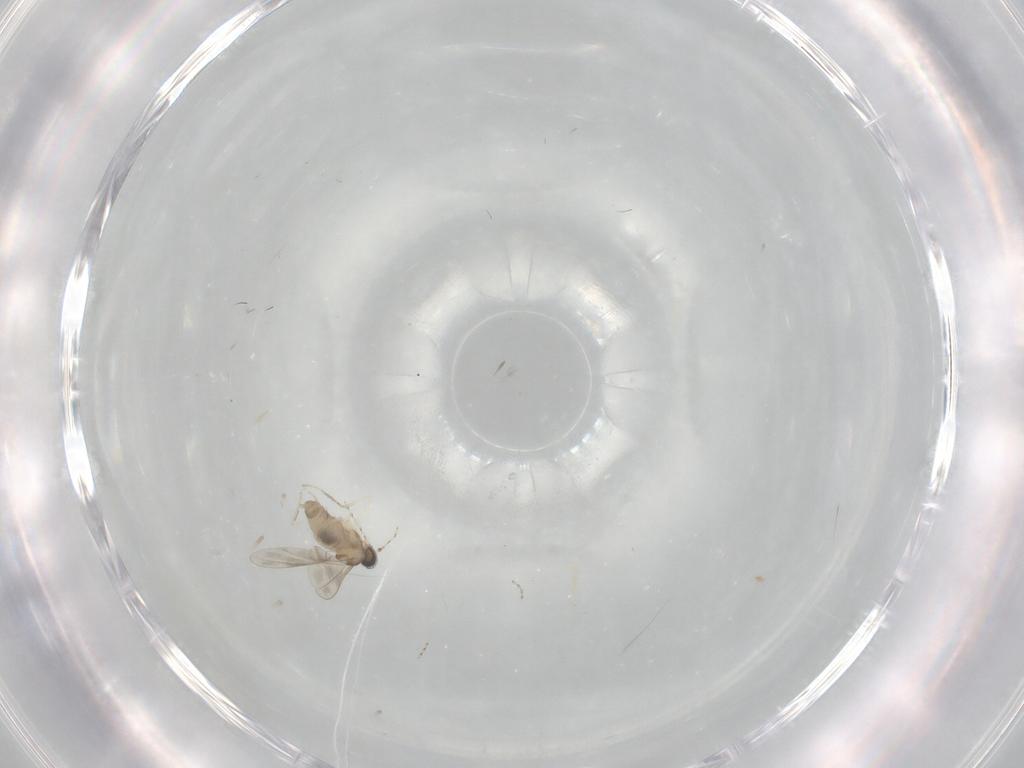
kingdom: Animalia
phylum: Arthropoda
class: Insecta
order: Diptera
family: Cecidomyiidae
